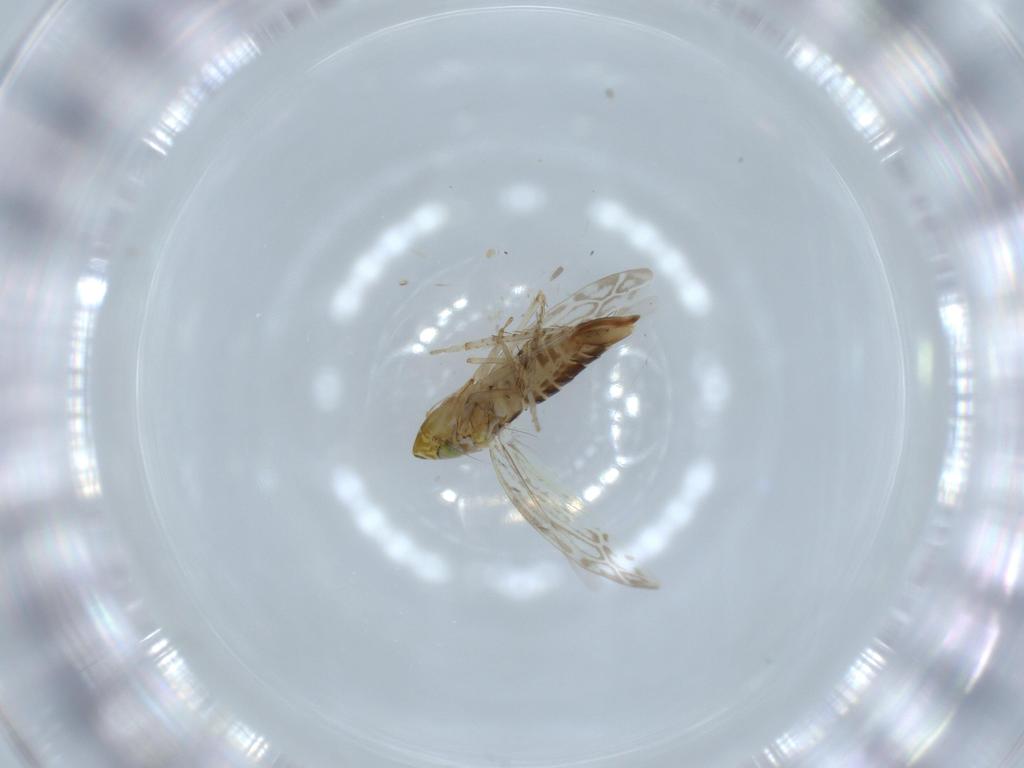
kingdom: Animalia
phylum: Arthropoda
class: Insecta
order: Hemiptera
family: Cicadellidae
